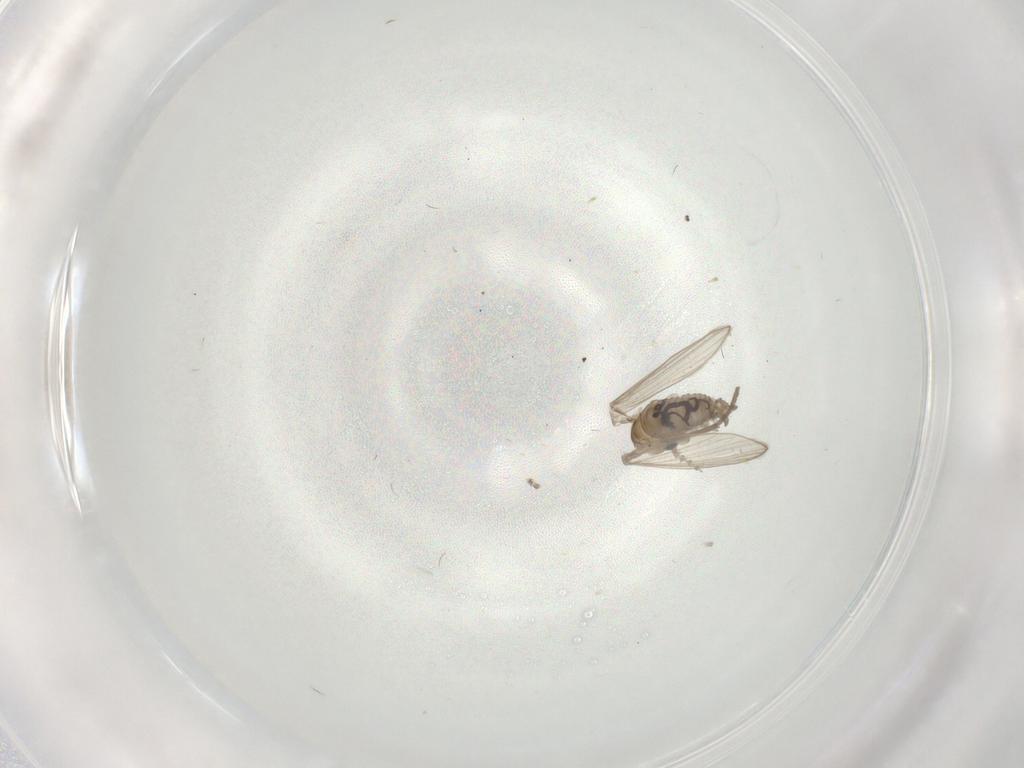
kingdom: Animalia
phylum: Arthropoda
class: Insecta
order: Diptera
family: Psychodidae
